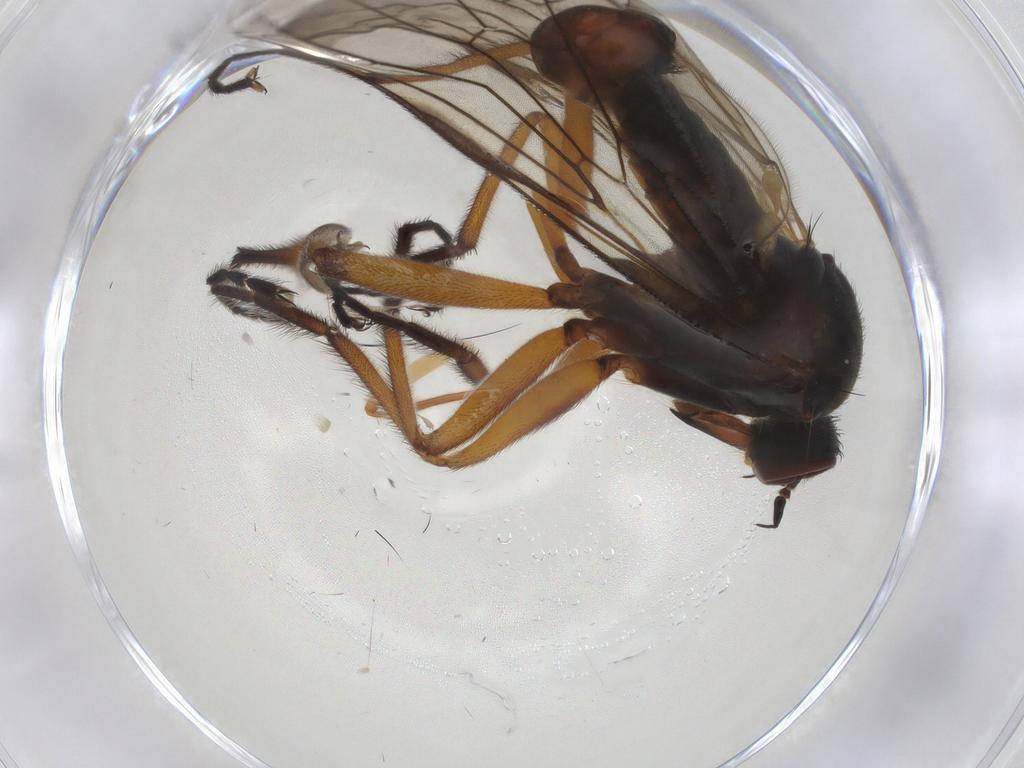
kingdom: Animalia
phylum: Arthropoda
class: Insecta
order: Diptera
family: Empididae
